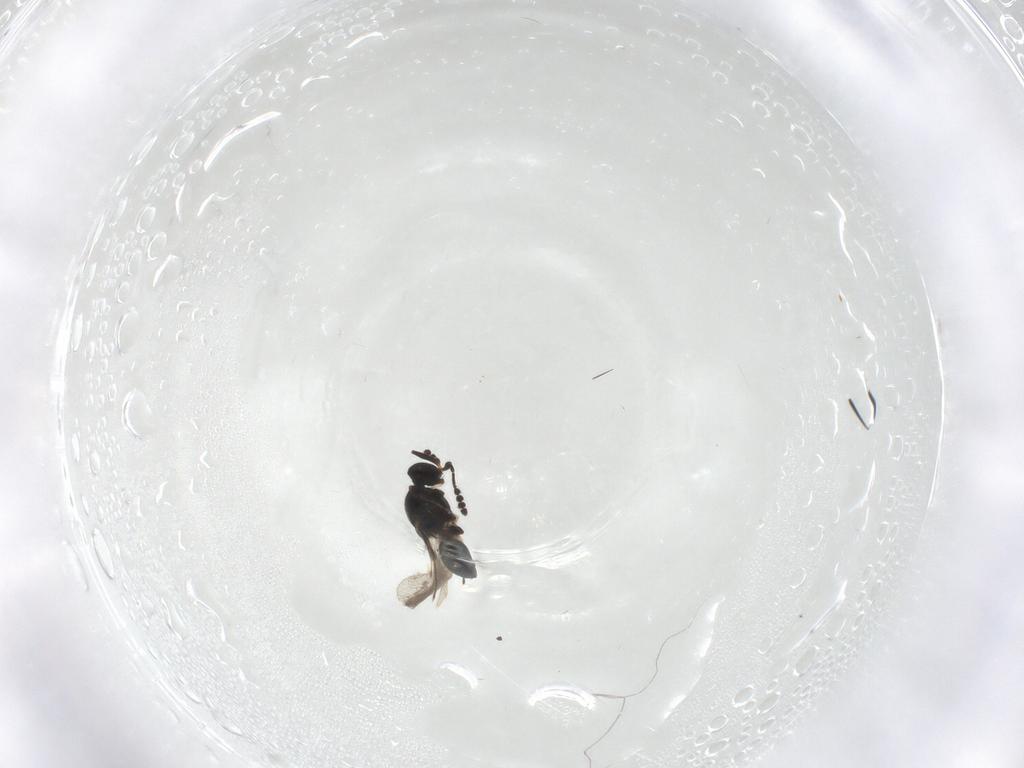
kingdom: Animalia
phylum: Arthropoda
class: Insecta
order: Hymenoptera
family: Platygastridae
